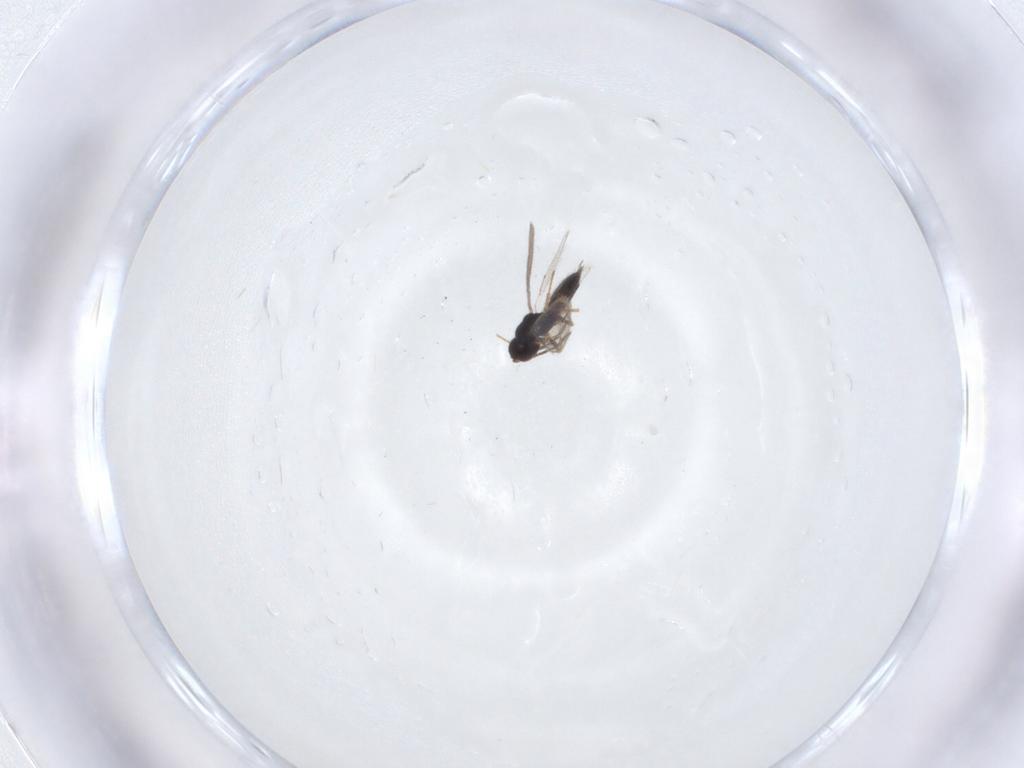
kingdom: Animalia
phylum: Arthropoda
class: Insecta
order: Hymenoptera
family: Eulophidae
